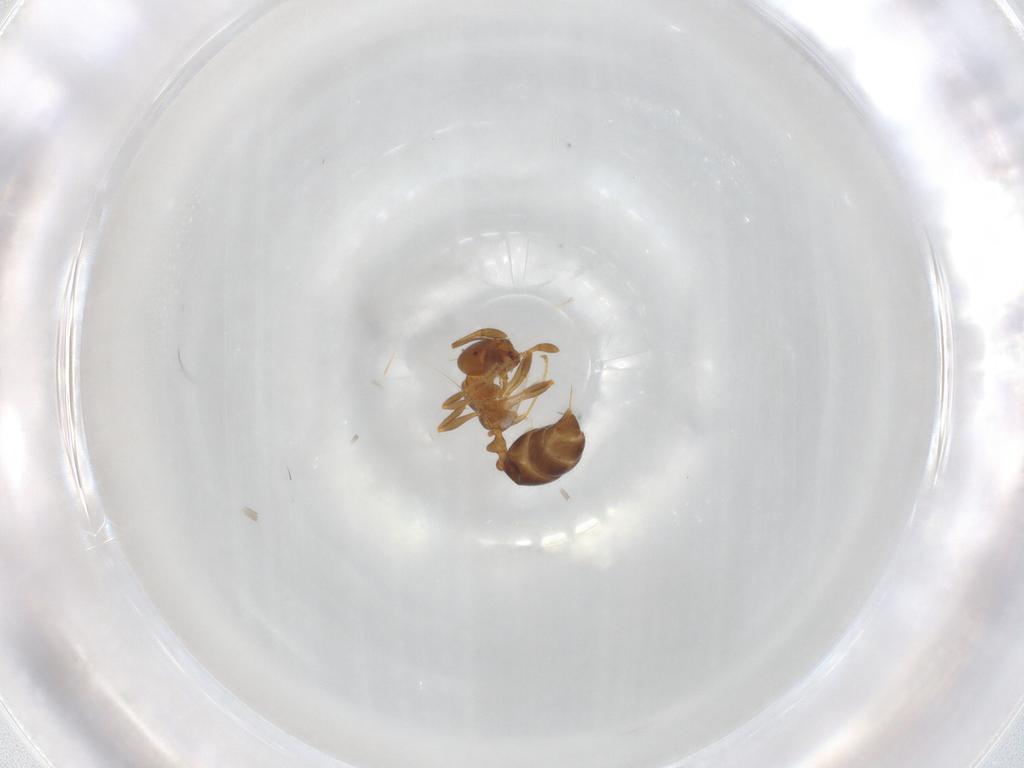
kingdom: Animalia
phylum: Arthropoda
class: Insecta
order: Hymenoptera
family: Formicidae
